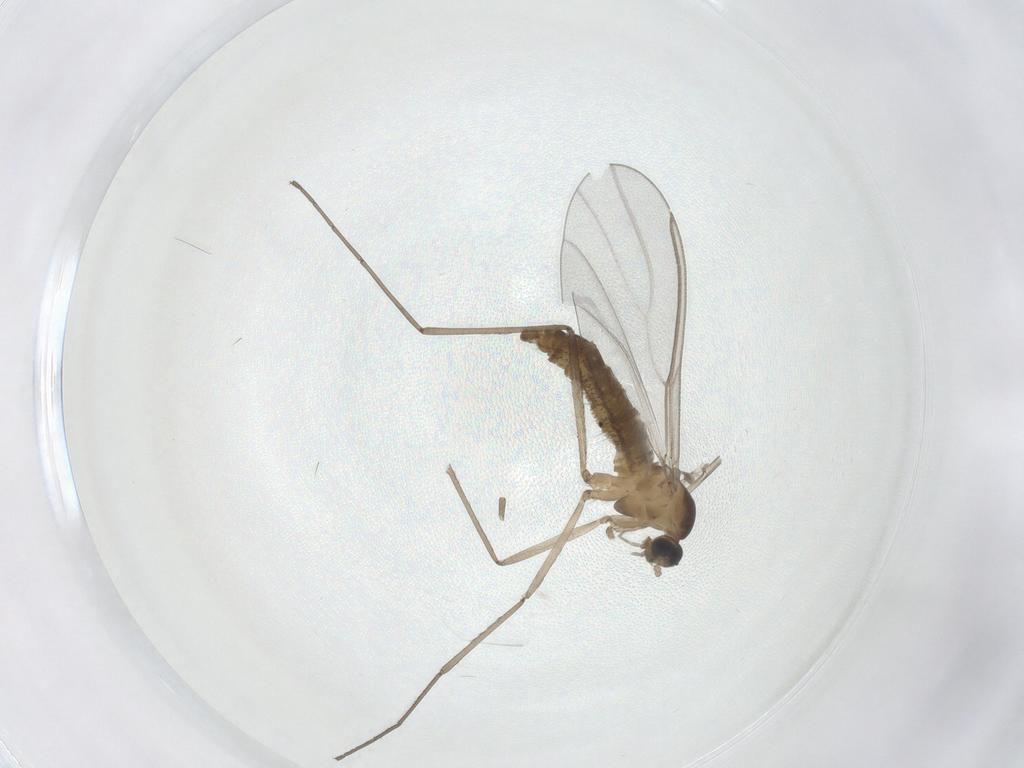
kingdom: Animalia
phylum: Arthropoda
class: Insecta
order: Diptera
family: Cecidomyiidae
